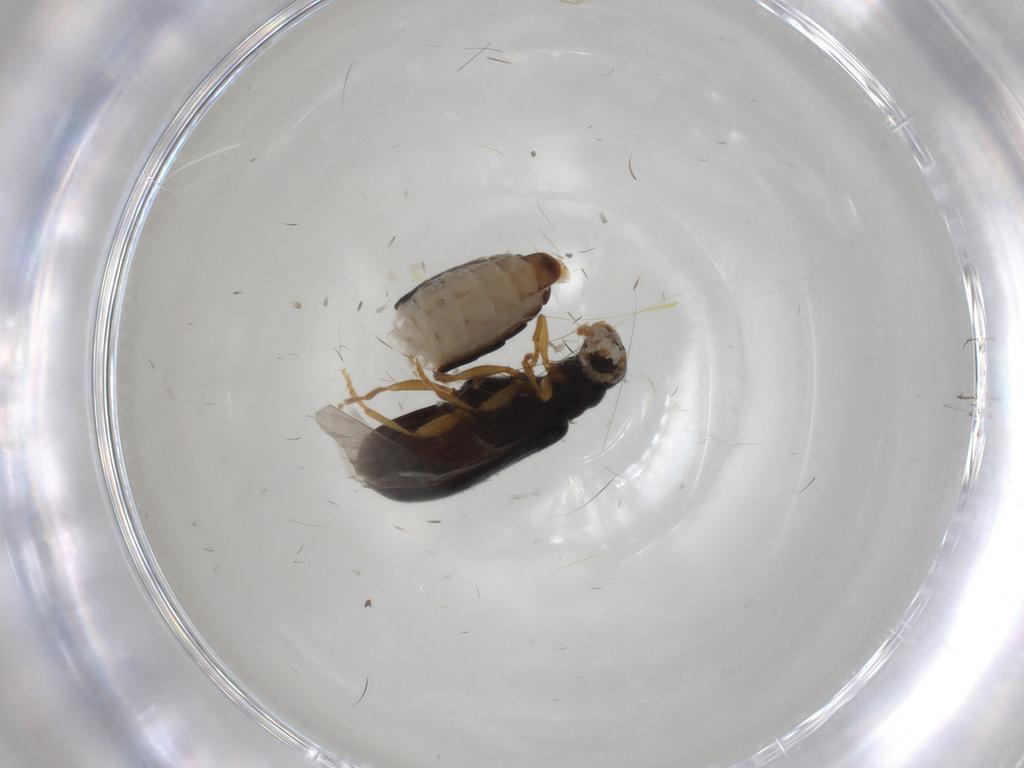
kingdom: Animalia
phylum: Arthropoda
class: Insecta
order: Coleoptera
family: Mycteridae
